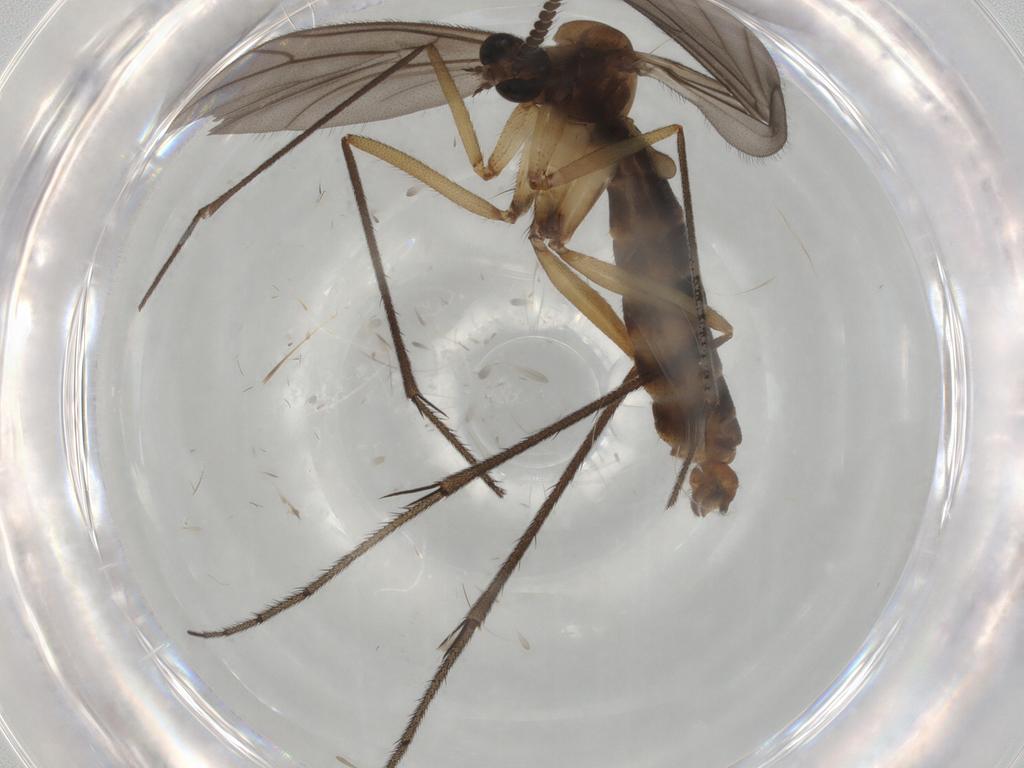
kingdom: Animalia
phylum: Arthropoda
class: Insecta
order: Diptera
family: Ditomyiidae
